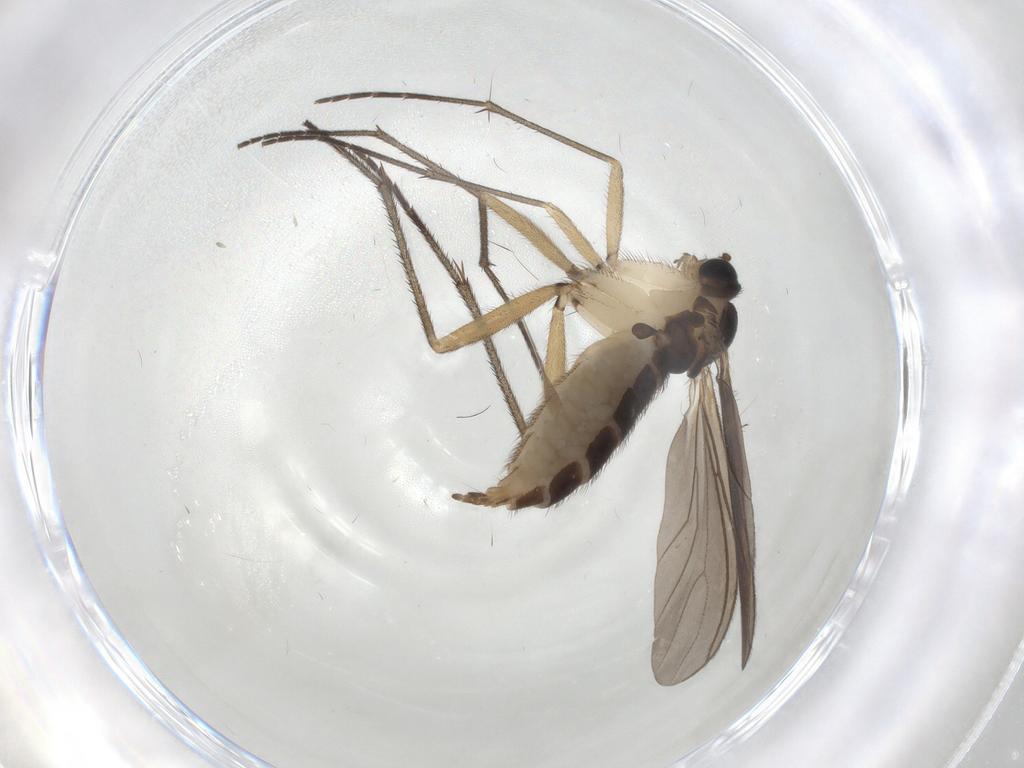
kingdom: Animalia
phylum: Arthropoda
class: Insecta
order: Diptera
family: Sciaridae
